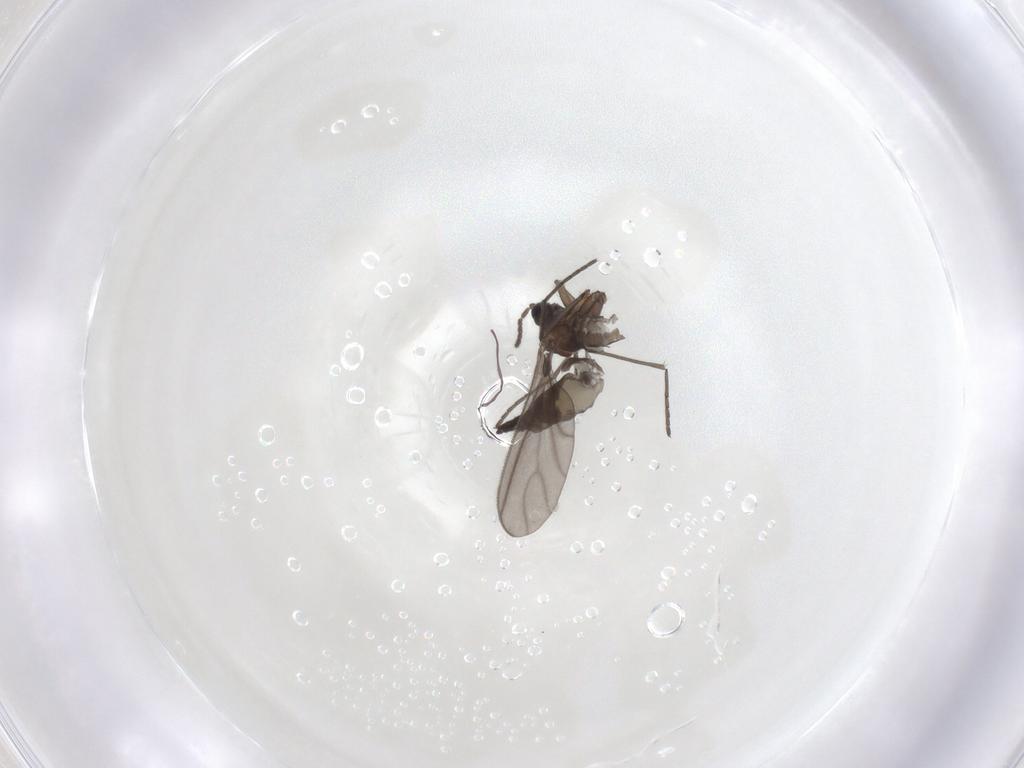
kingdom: Animalia
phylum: Arthropoda
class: Insecta
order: Diptera
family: Sciaridae
